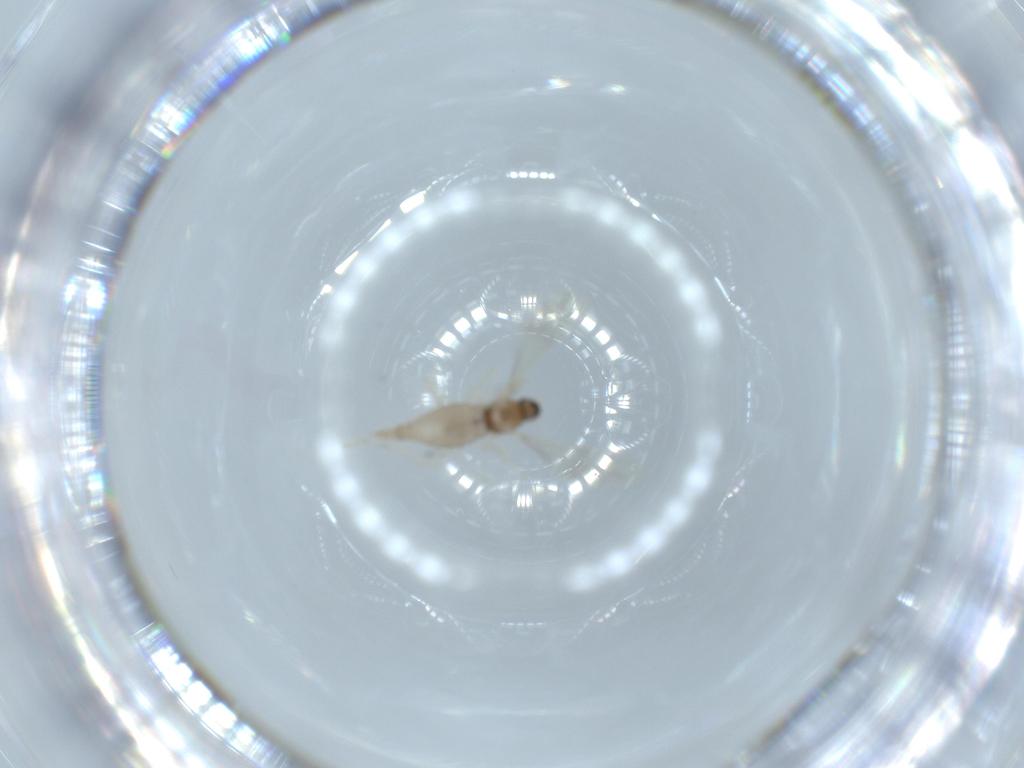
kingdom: Animalia
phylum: Arthropoda
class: Insecta
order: Diptera
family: Cecidomyiidae
